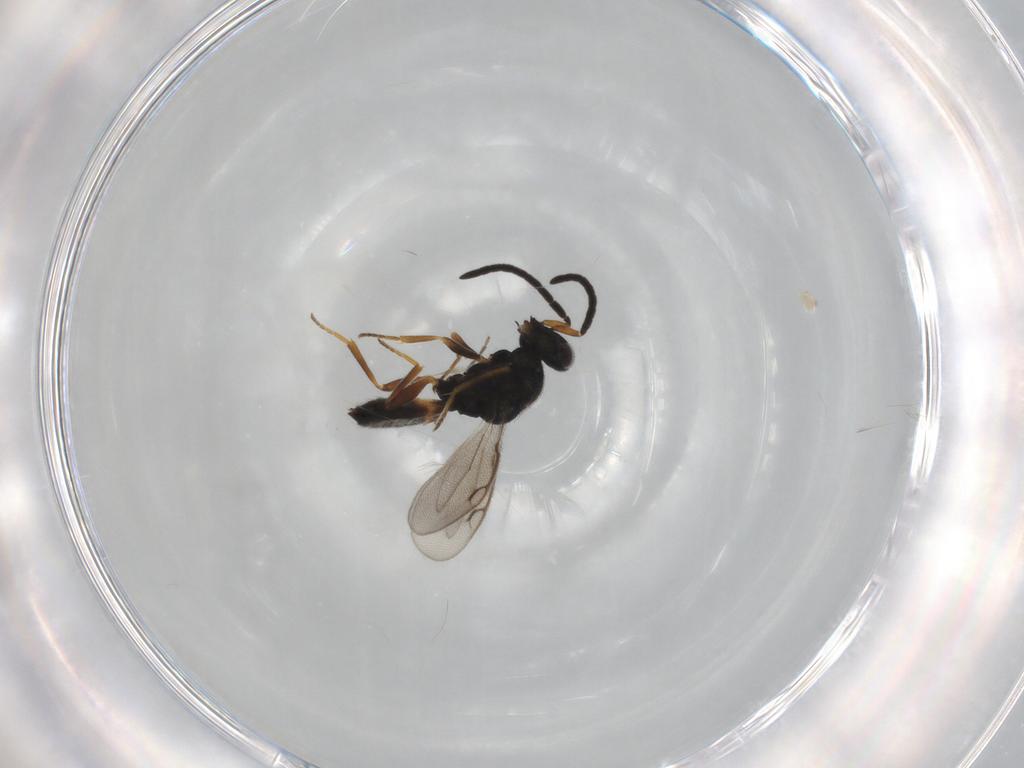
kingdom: Animalia
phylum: Arthropoda
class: Insecta
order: Hymenoptera
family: Pteromalidae
